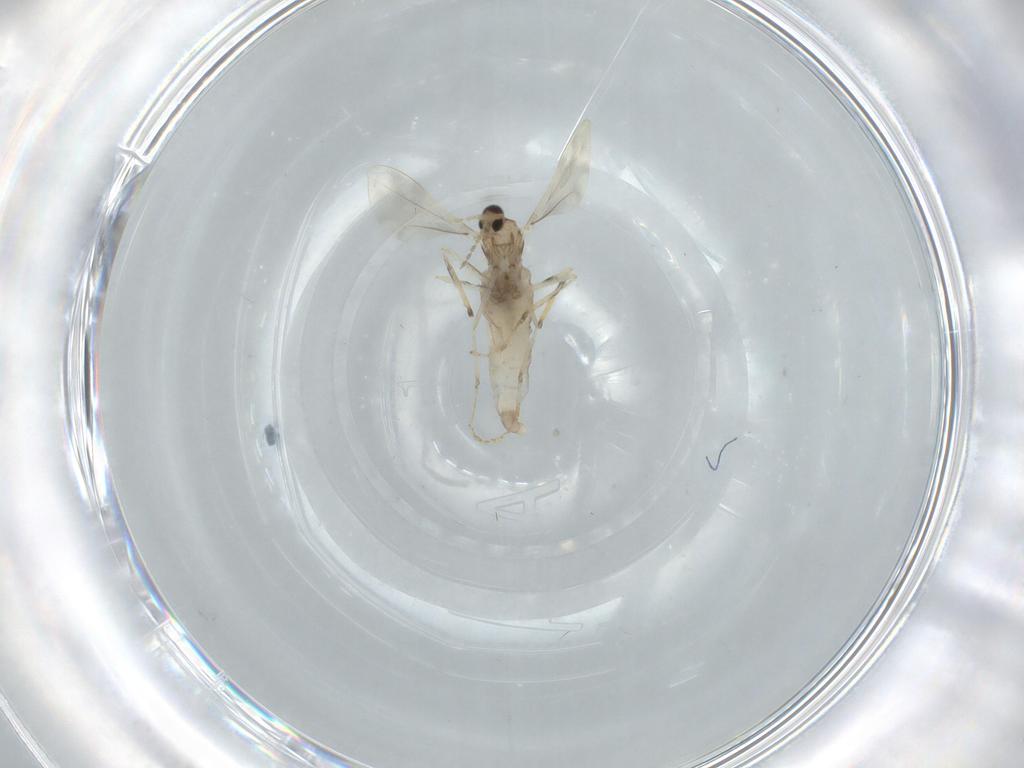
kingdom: Animalia
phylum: Arthropoda
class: Insecta
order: Diptera
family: Cecidomyiidae
